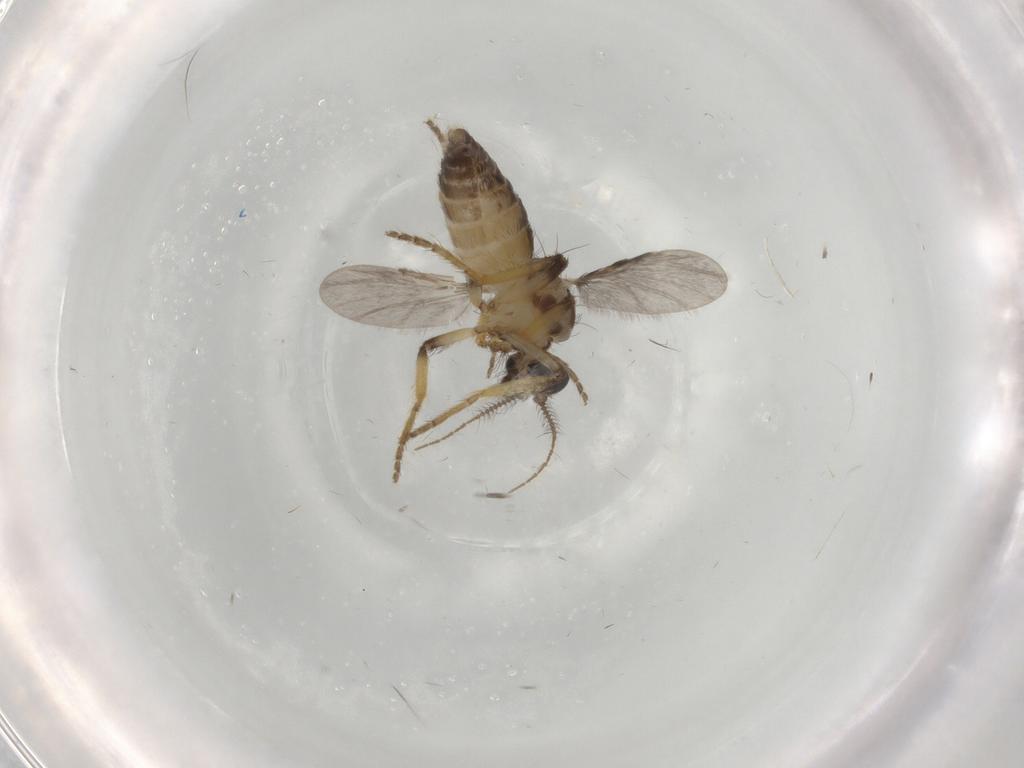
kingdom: Animalia
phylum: Arthropoda
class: Insecta
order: Diptera
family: Ceratopogonidae
